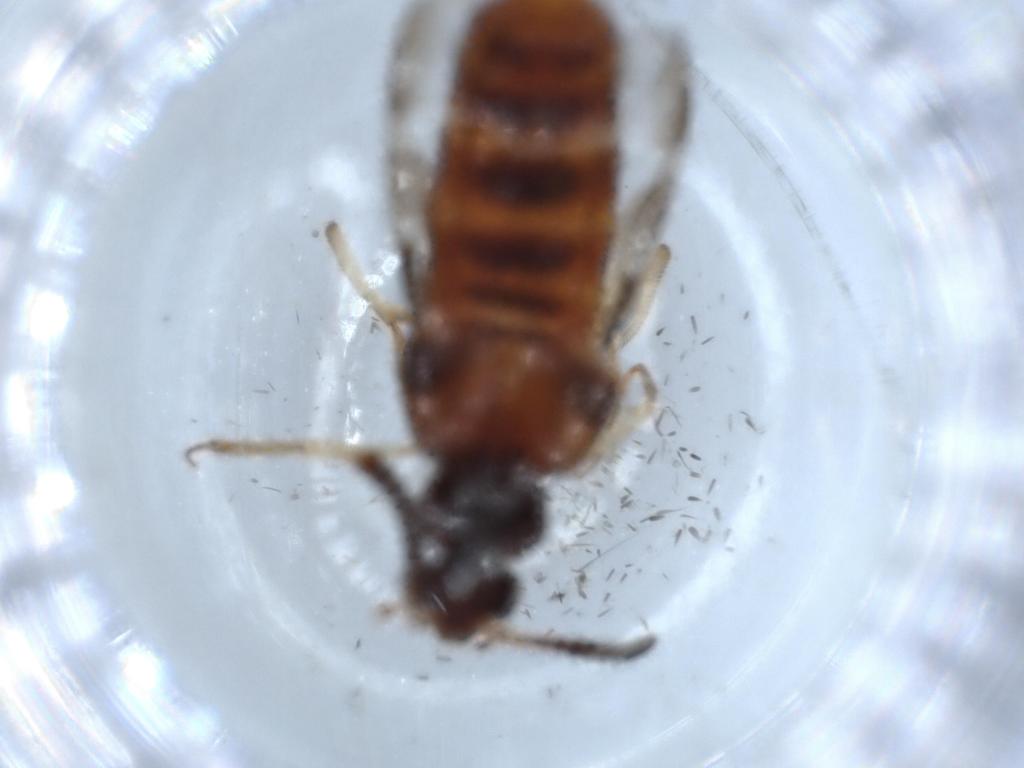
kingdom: Animalia
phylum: Arthropoda
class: Insecta
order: Coleoptera
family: Staphylinidae
